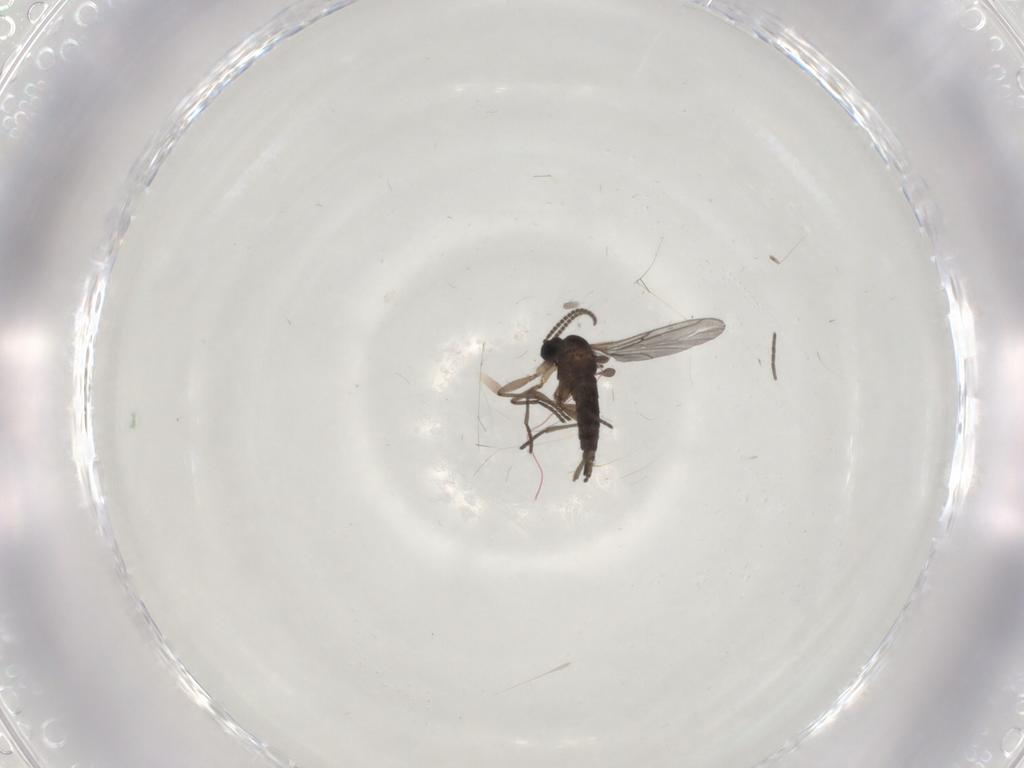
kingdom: Animalia
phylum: Arthropoda
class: Insecta
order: Diptera
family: Sciaridae
